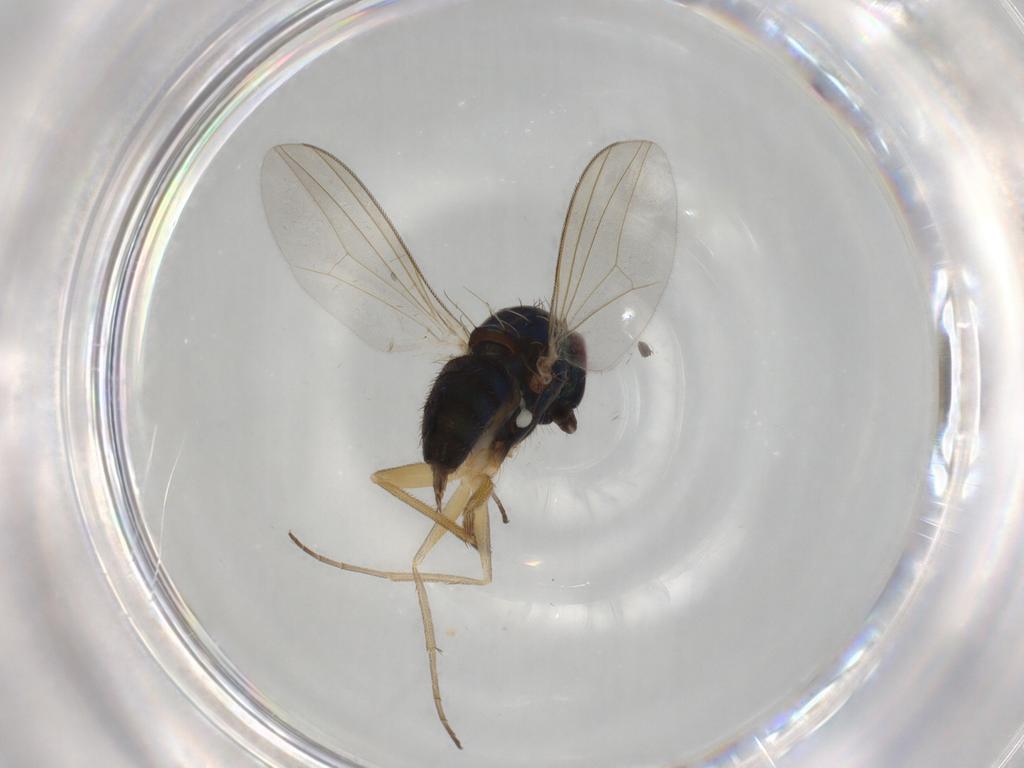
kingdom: Animalia
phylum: Arthropoda
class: Insecta
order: Diptera
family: Dolichopodidae
